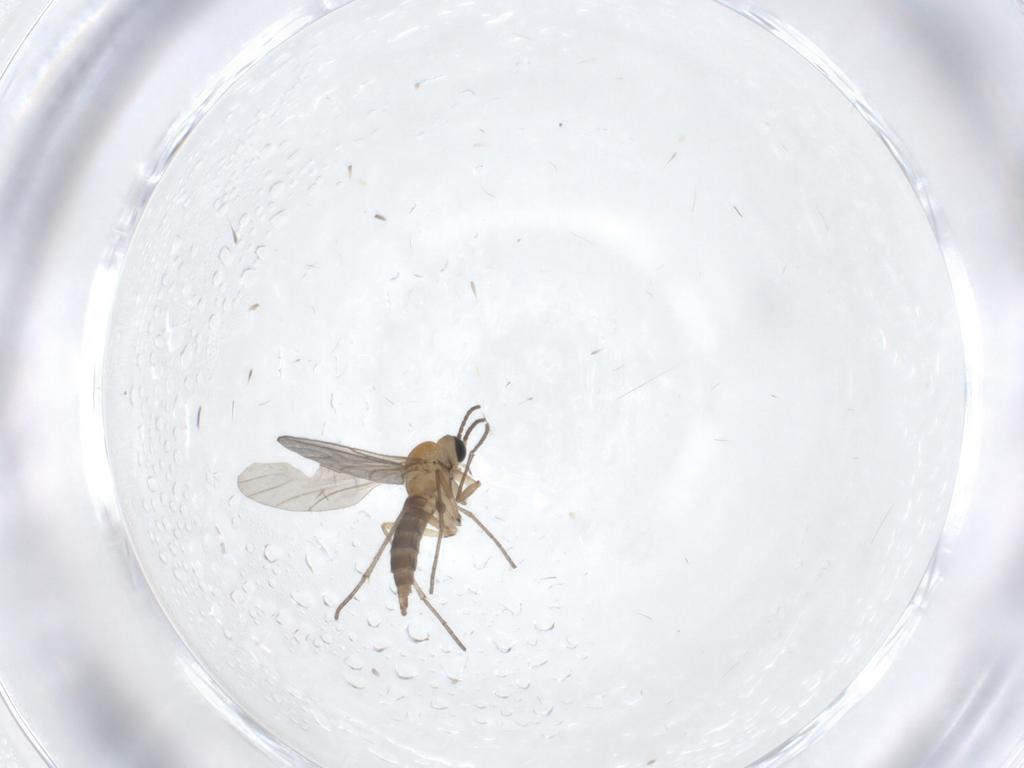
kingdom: Animalia
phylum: Arthropoda
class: Insecta
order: Diptera
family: Sciaridae
